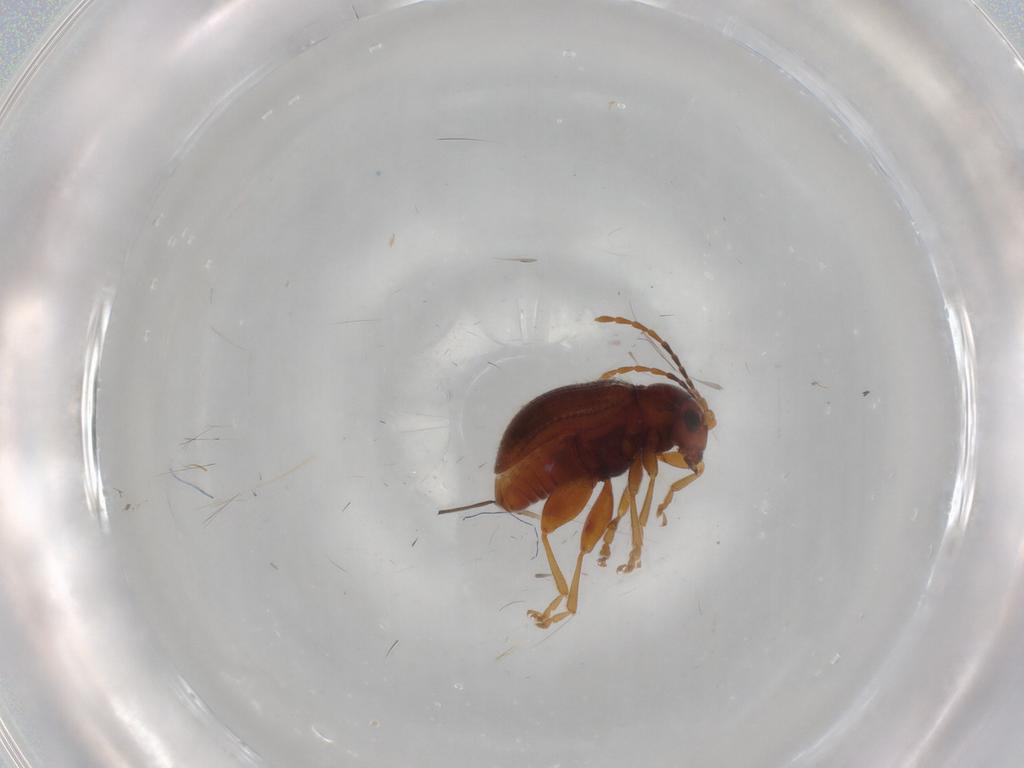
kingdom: Animalia
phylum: Arthropoda
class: Insecta
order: Coleoptera
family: Chrysomelidae
